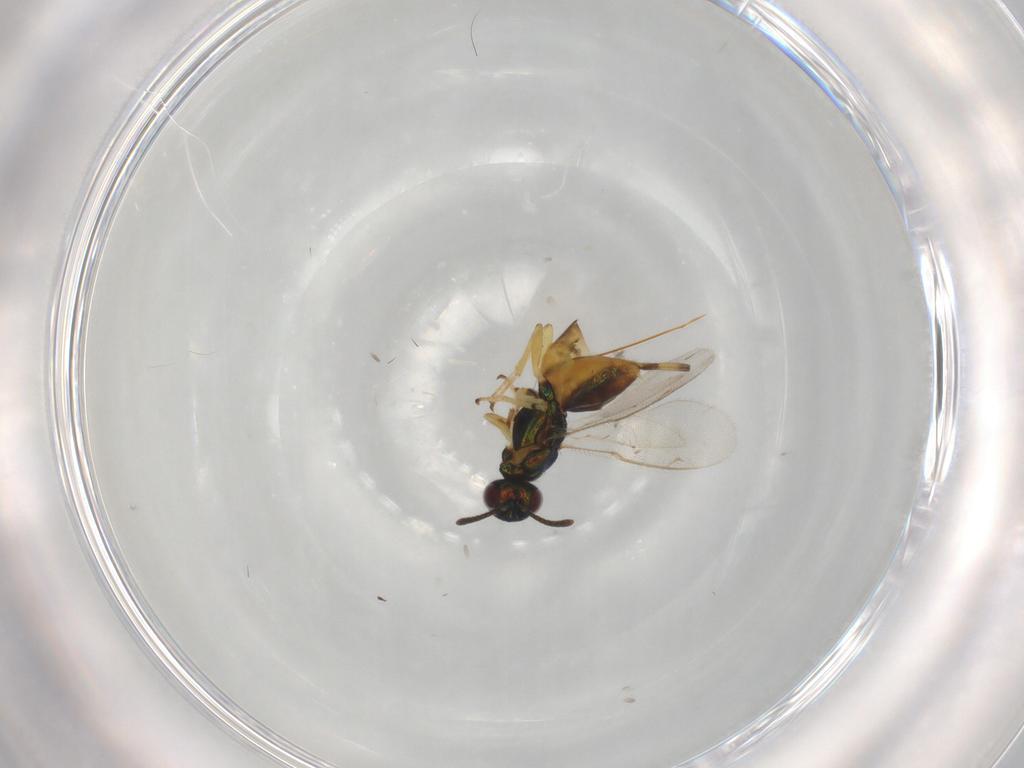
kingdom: Animalia
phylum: Arthropoda
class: Insecta
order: Hymenoptera
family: Formicidae
